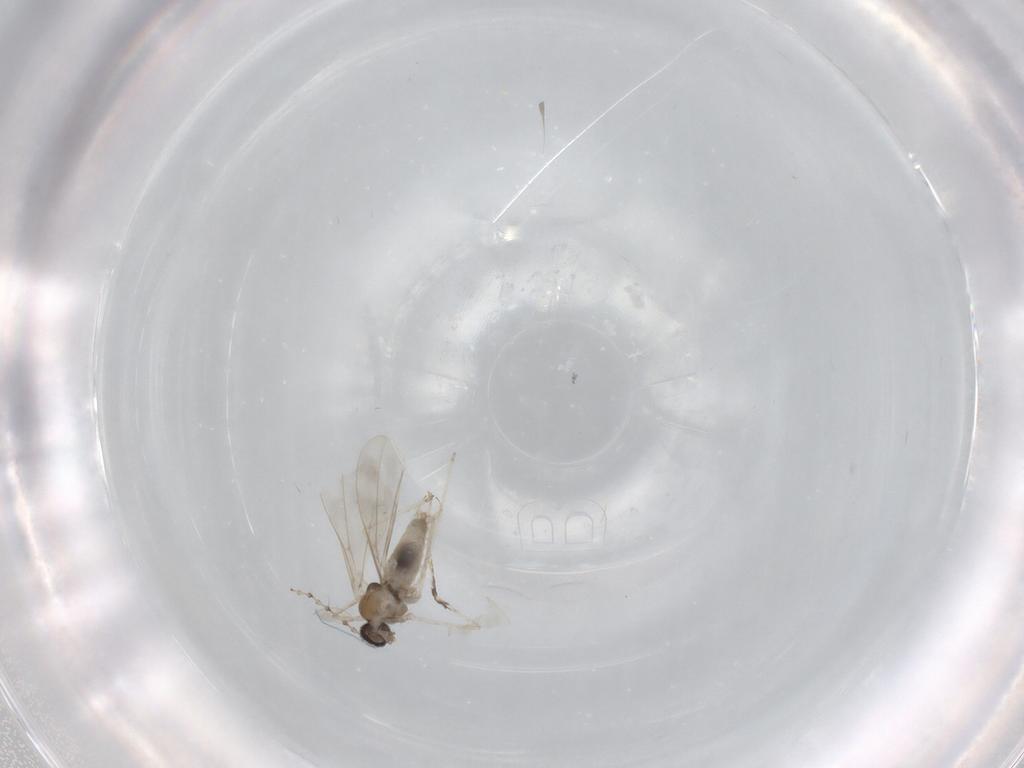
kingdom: Animalia
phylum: Arthropoda
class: Insecta
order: Diptera
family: Cecidomyiidae
